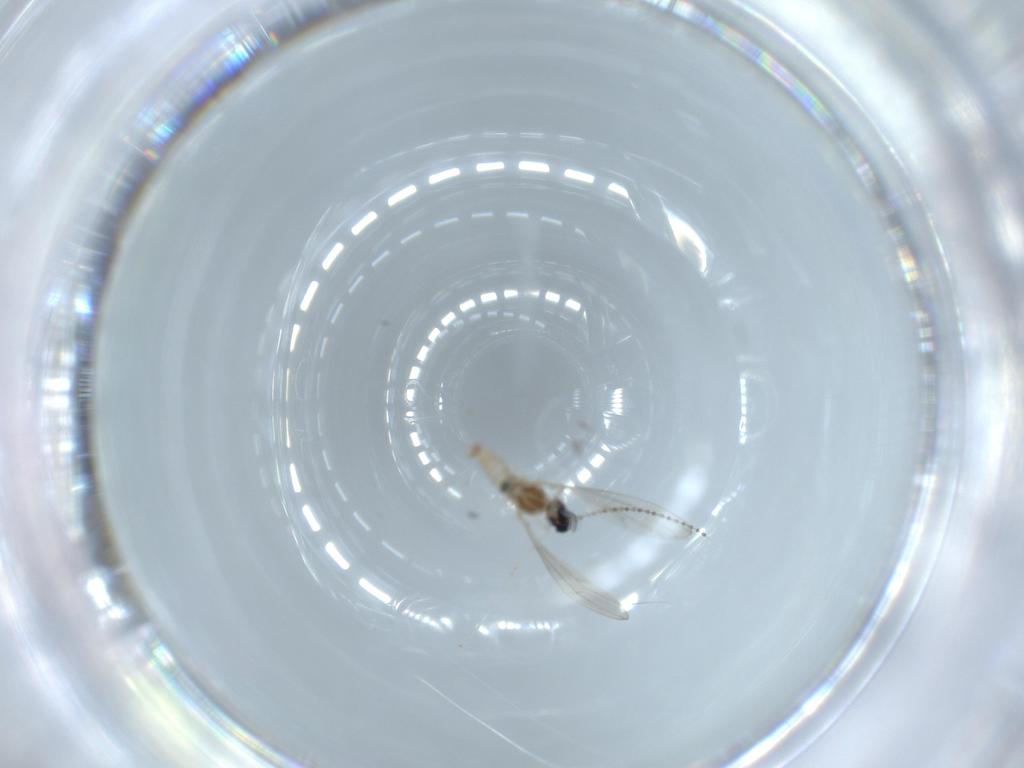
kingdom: Animalia
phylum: Arthropoda
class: Insecta
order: Diptera
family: Cecidomyiidae
